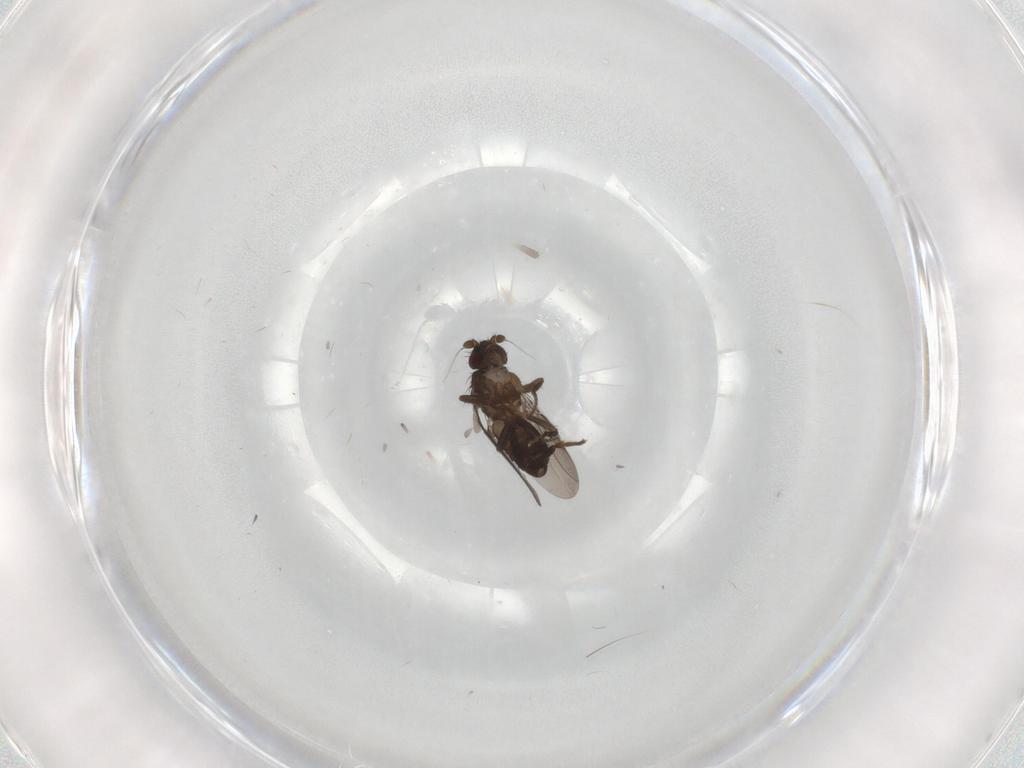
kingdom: Animalia
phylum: Arthropoda
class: Insecta
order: Diptera
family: Sphaeroceridae
